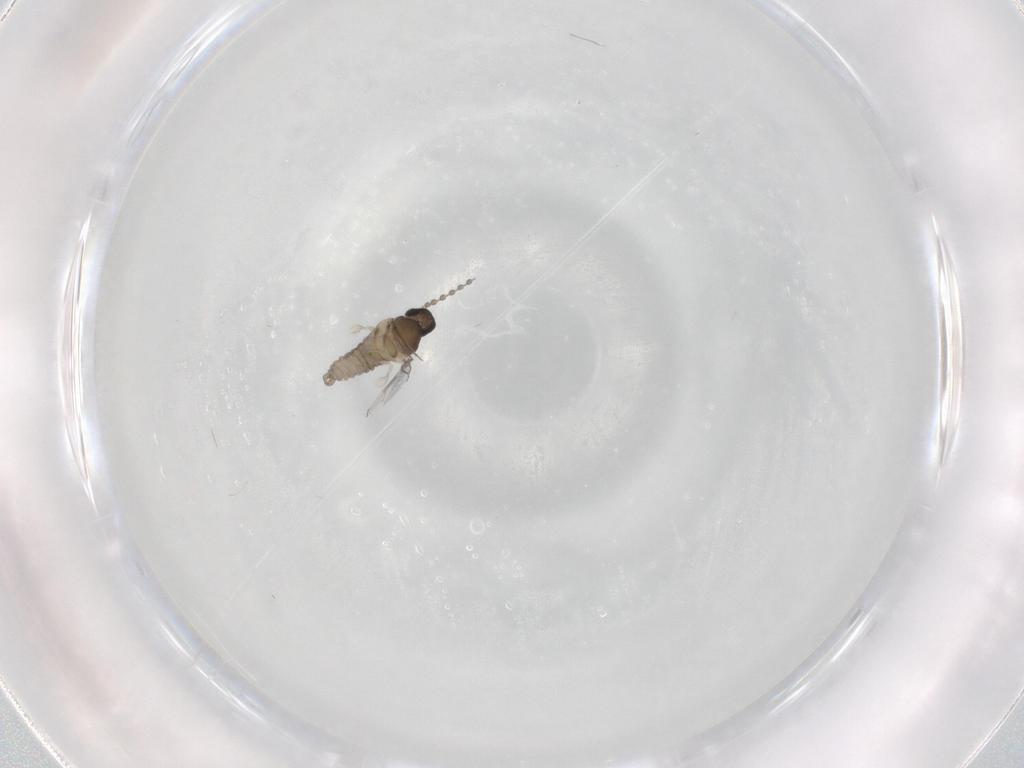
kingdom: Animalia
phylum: Arthropoda
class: Insecta
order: Diptera
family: Cecidomyiidae
